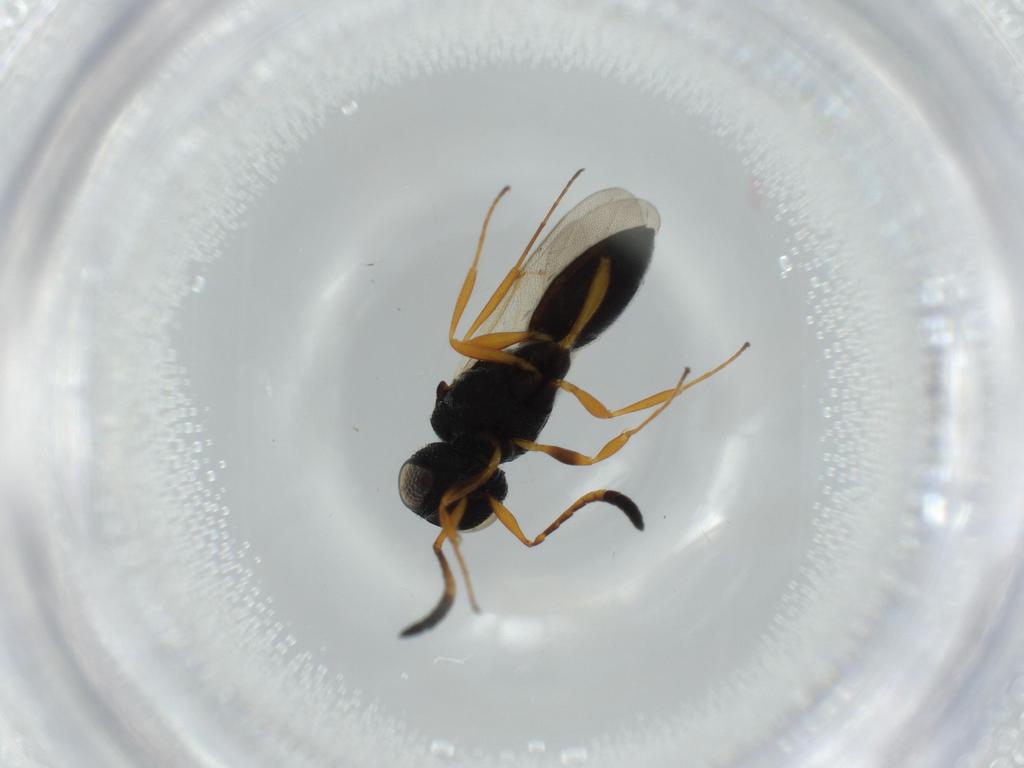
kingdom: Animalia
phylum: Arthropoda
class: Insecta
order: Hymenoptera
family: Scelionidae
